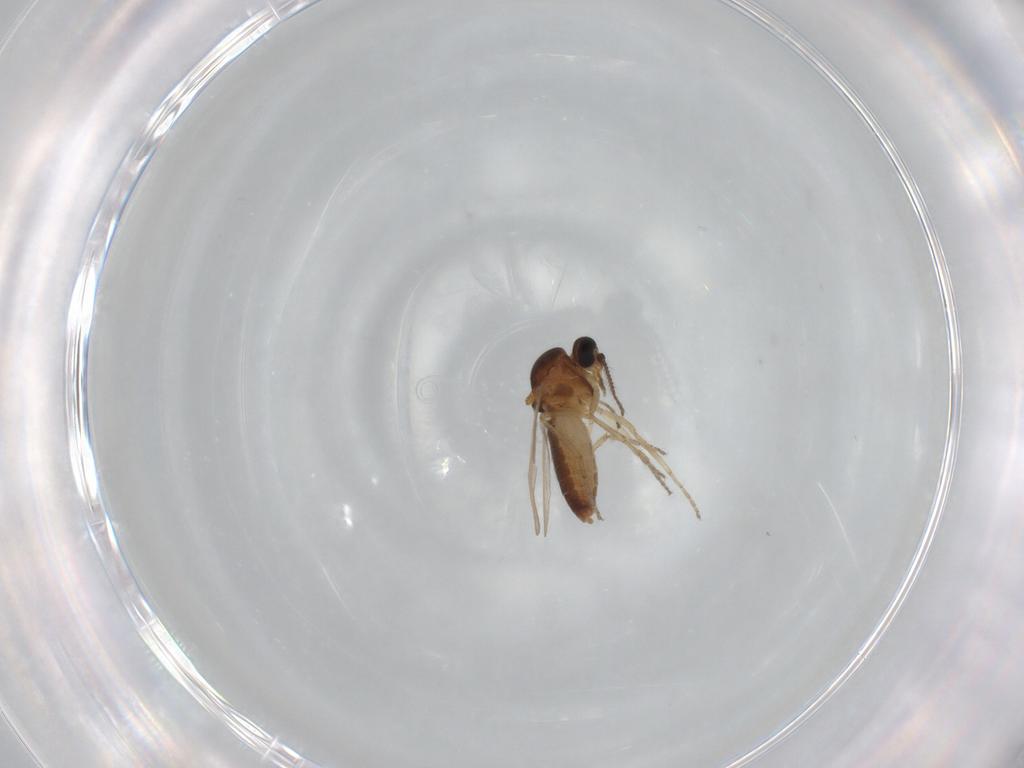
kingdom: Animalia
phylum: Arthropoda
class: Insecta
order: Diptera
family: Ceratopogonidae
